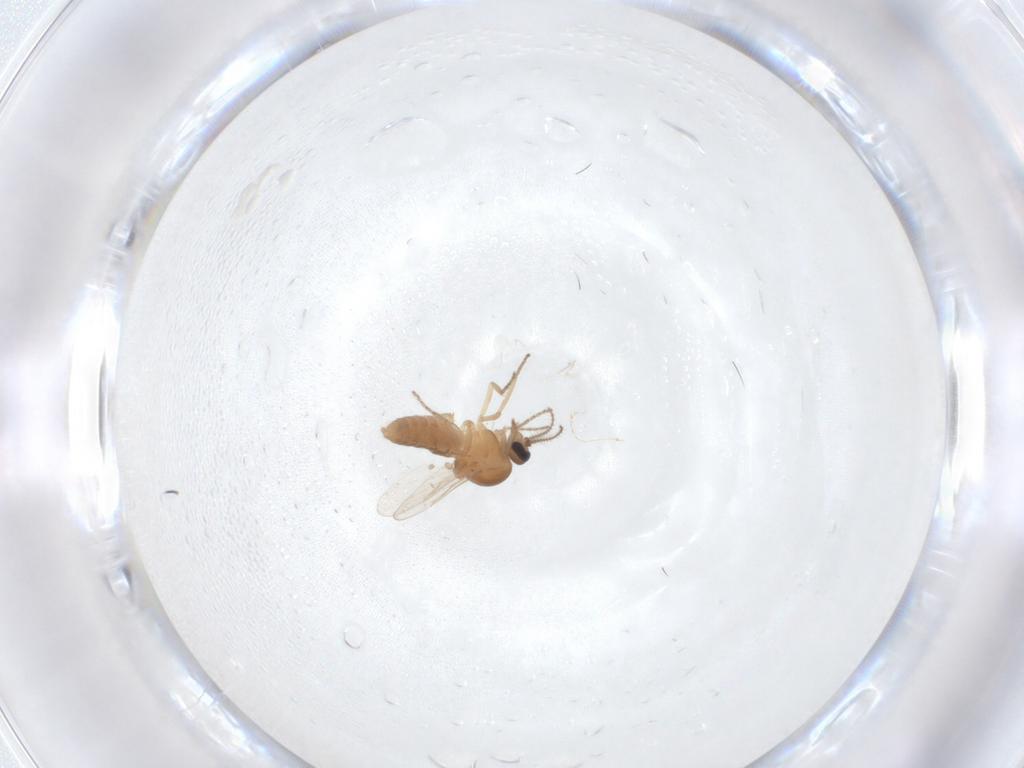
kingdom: Animalia
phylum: Arthropoda
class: Insecta
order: Diptera
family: Ceratopogonidae
